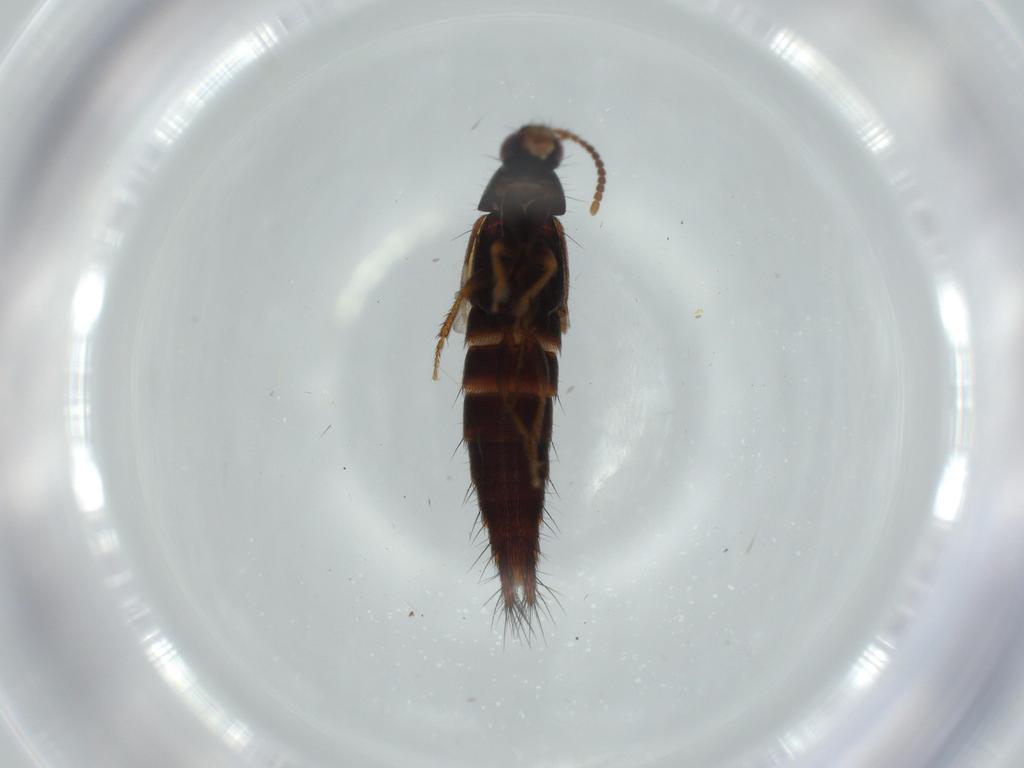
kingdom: Animalia
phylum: Arthropoda
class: Insecta
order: Coleoptera
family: Staphylinidae
